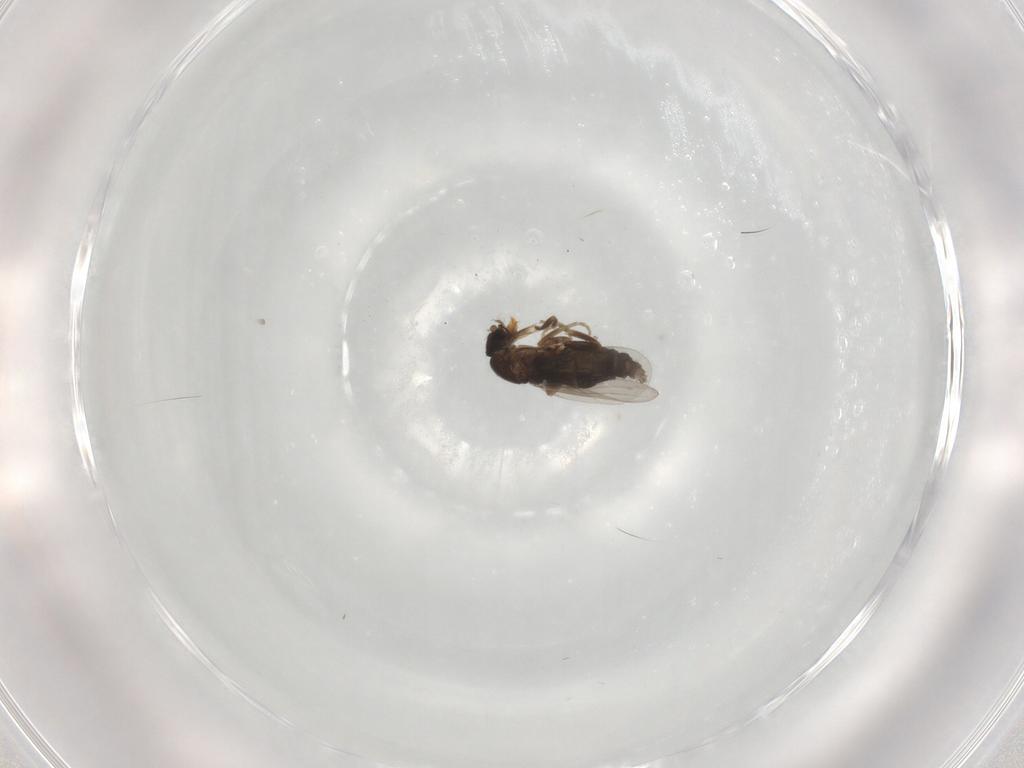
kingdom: Animalia
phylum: Arthropoda
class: Insecta
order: Diptera
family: Phoridae
